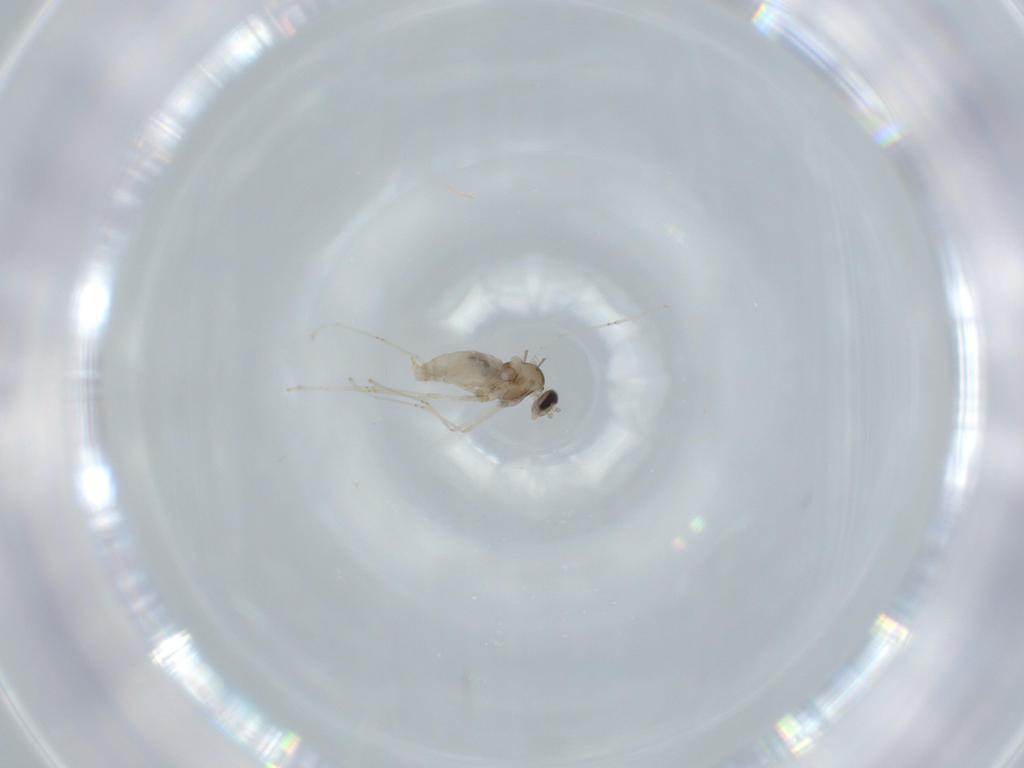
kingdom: Animalia
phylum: Arthropoda
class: Insecta
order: Diptera
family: Cecidomyiidae
